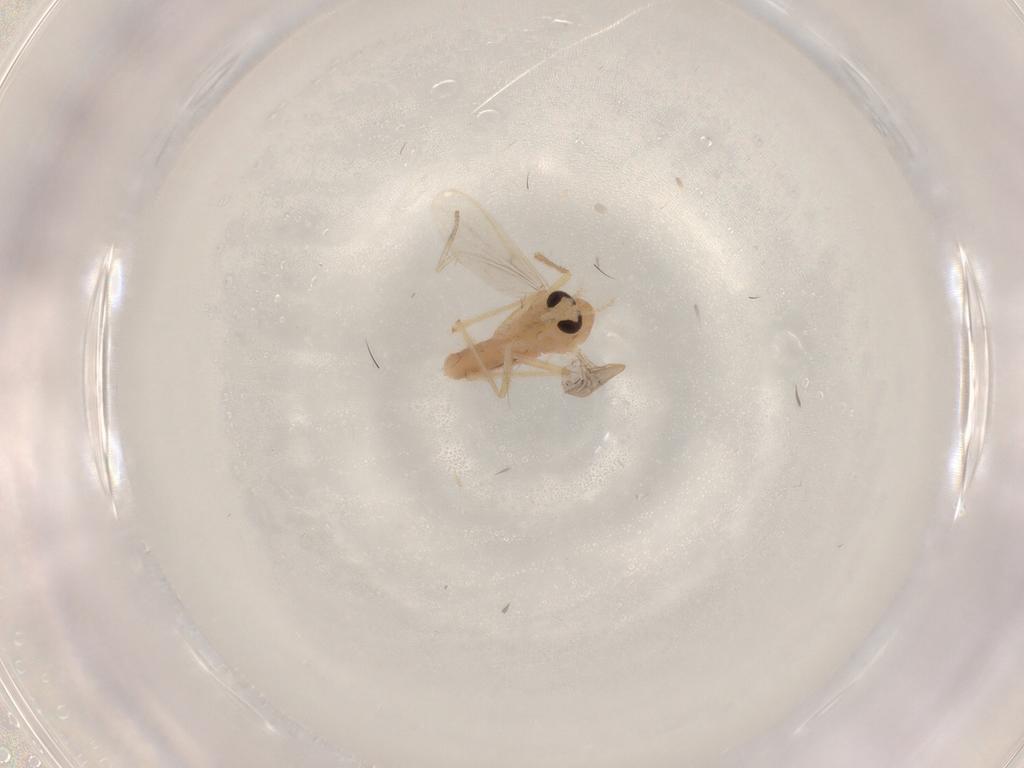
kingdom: Animalia
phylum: Arthropoda
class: Insecta
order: Diptera
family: Chironomidae
